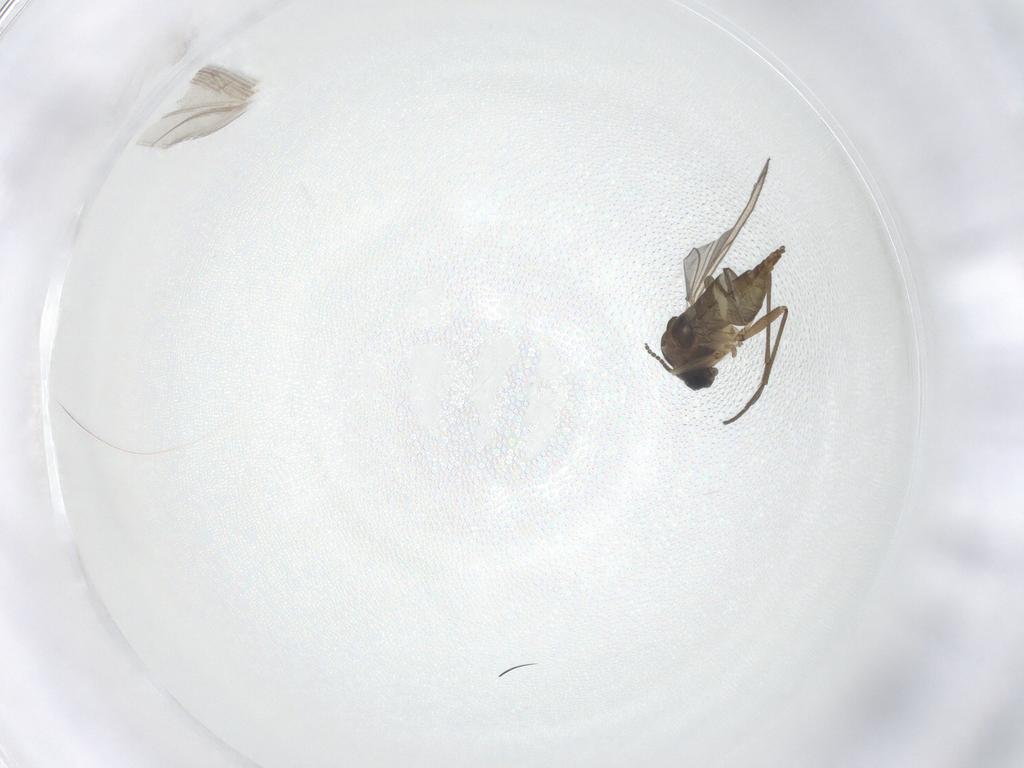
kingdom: Animalia
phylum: Arthropoda
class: Insecta
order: Diptera
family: Sciaridae
